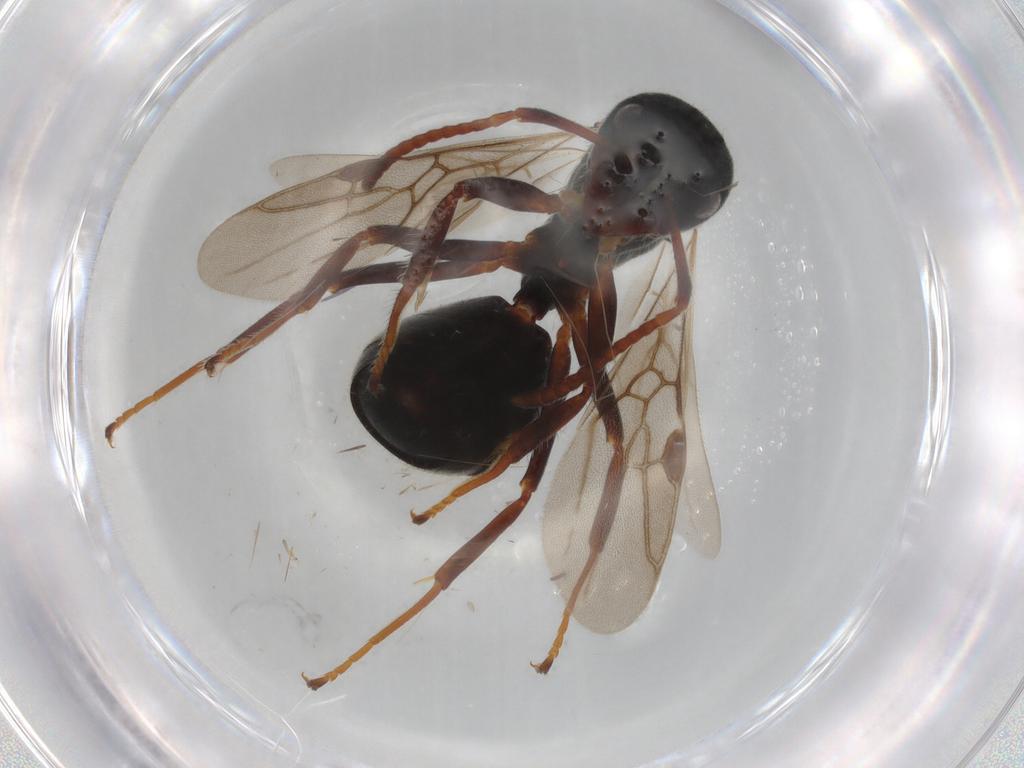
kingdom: Animalia
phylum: Arthropoda
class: Insecta
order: Hymenoptera
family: Formicidae
